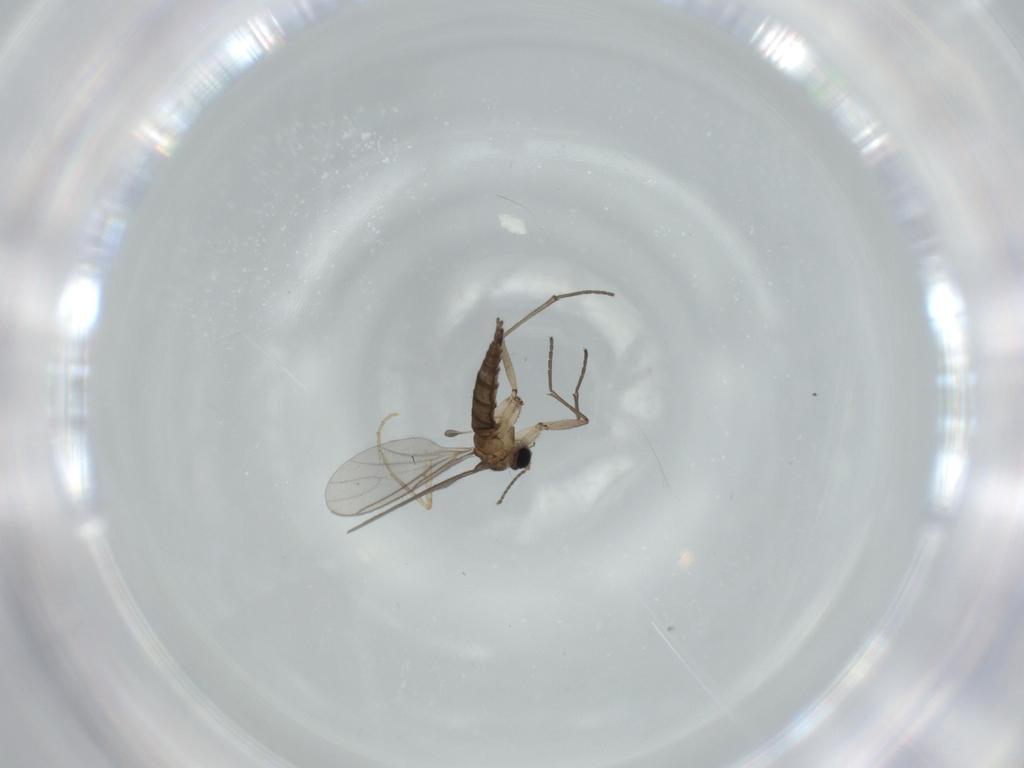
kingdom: Animalia
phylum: Arthropoda
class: Insecta
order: Diptera
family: Sciaridae
